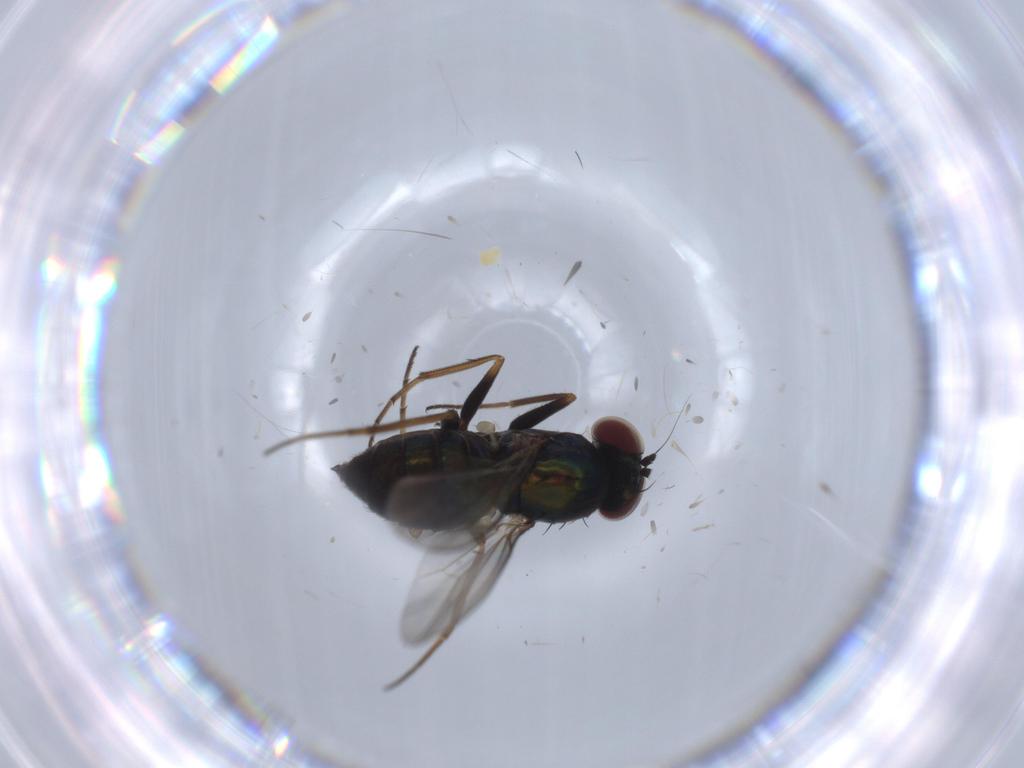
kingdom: Animalia
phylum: Arthropoda
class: Insecta
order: Diptera
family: Dolichopodidae
